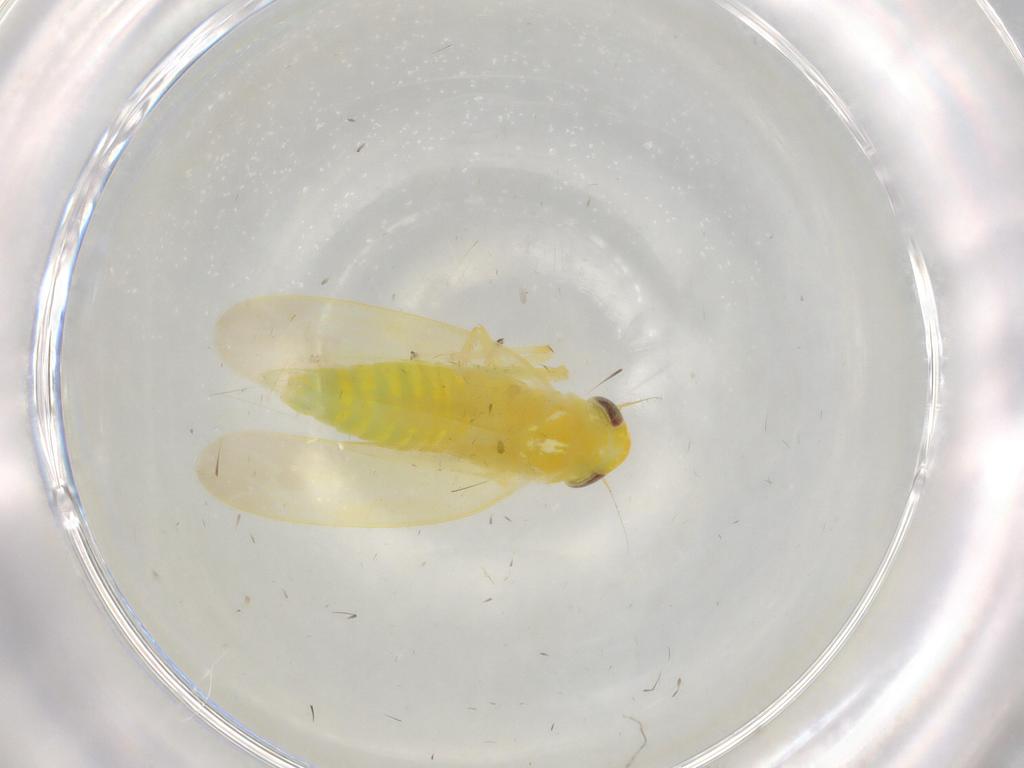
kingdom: Animalia
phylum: Arthropoda
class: Insecta
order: Hemiptera
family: Cicadellidae
